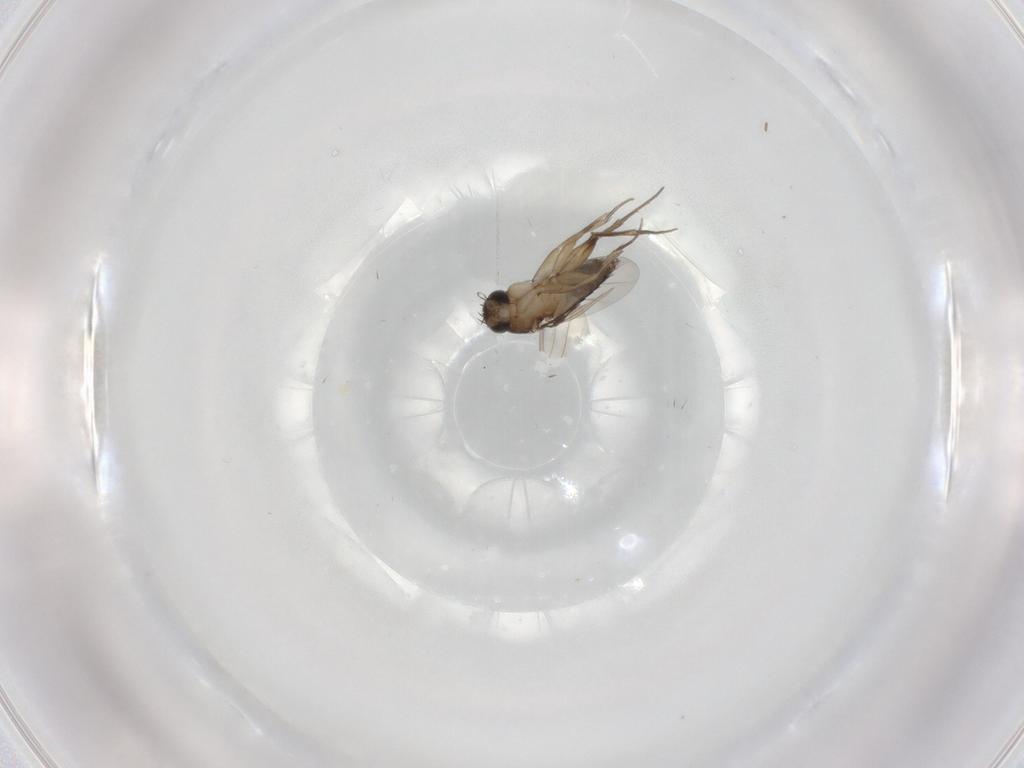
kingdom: Animalia
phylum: Arthropoda
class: Insecta
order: Diptera
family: Phoridae
